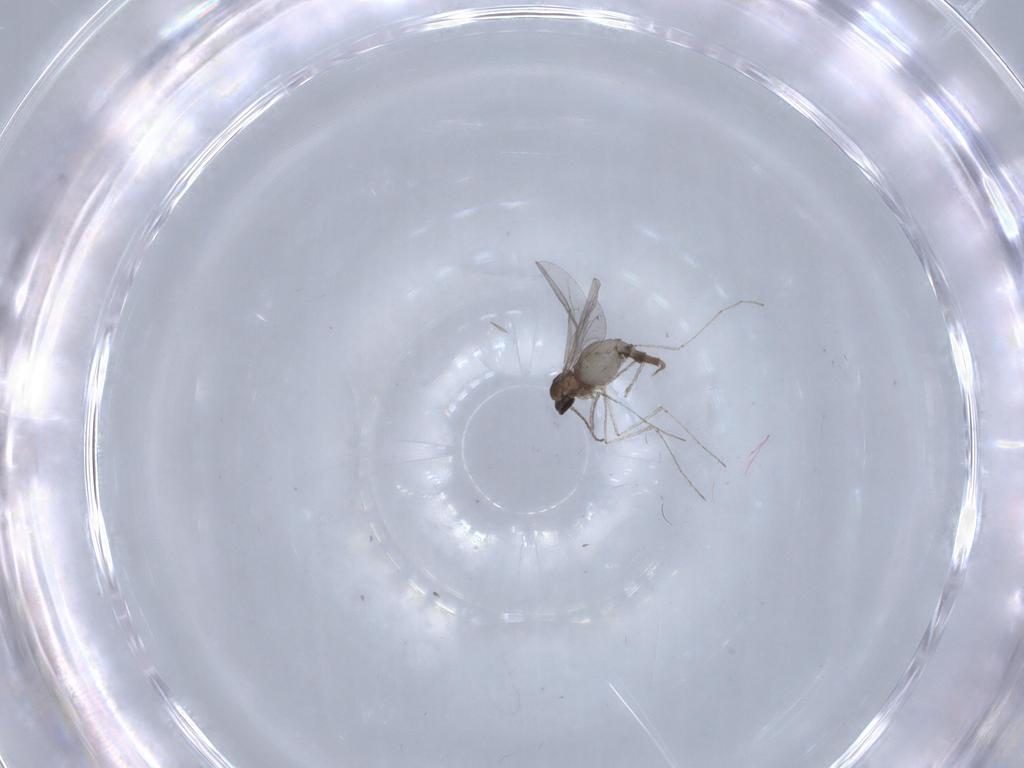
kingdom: Animalia
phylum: Arthropoda
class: Insecta
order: Diptera
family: Cecidomyiidae
